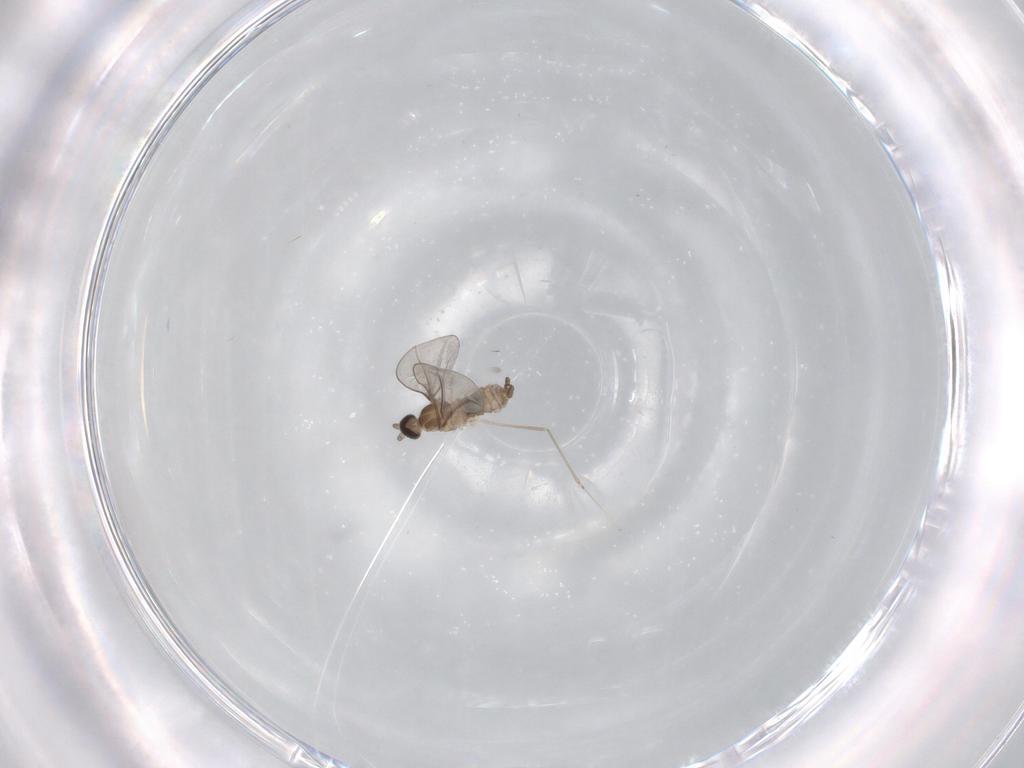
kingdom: Animalia
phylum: Arthropoda
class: Insecta
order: Diptera
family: Cecidomyiidae
